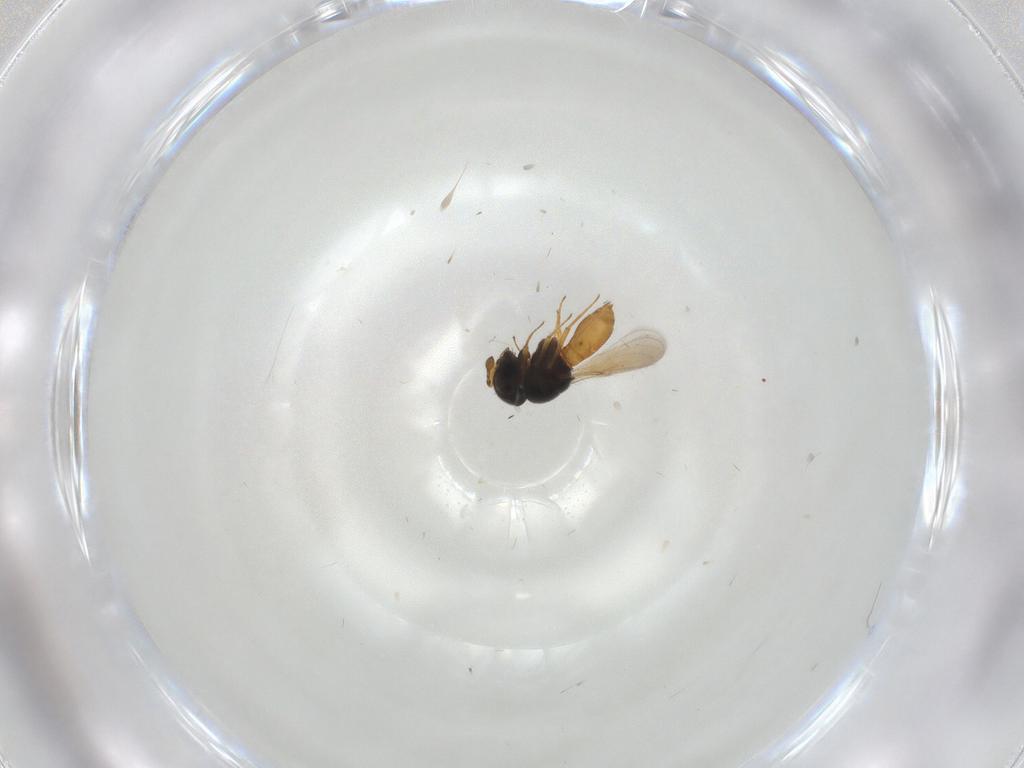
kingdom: Animalia
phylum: Arthropoda
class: Insecta
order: Hymenoptera
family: Scelionidae
